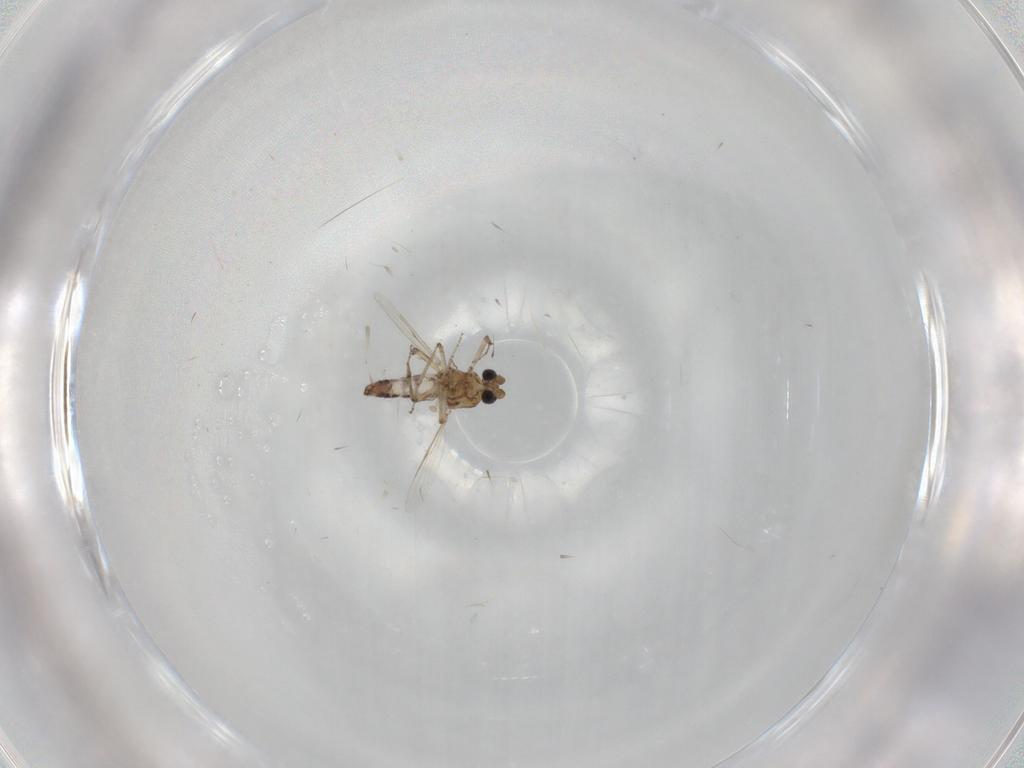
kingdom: Animalia
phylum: Arthropoda
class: Insecta
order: Diptera
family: Ceratopogonidae
